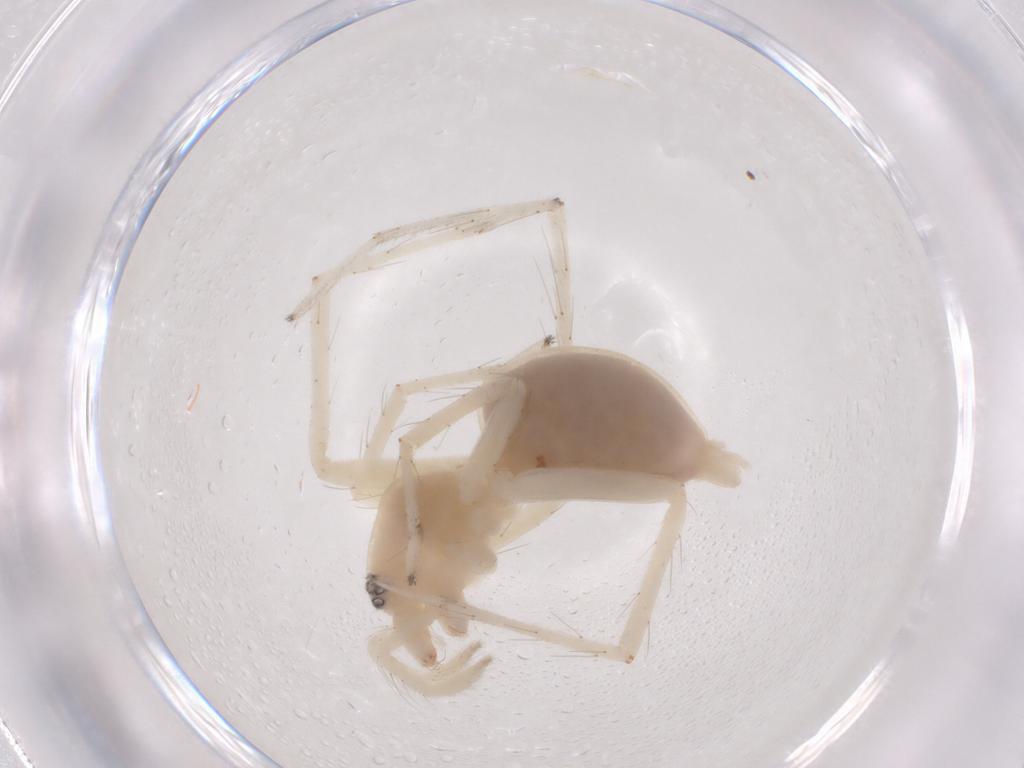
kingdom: Animalia
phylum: Arthropoda
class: Arachnida
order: Araneae
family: Anyphaenidae
